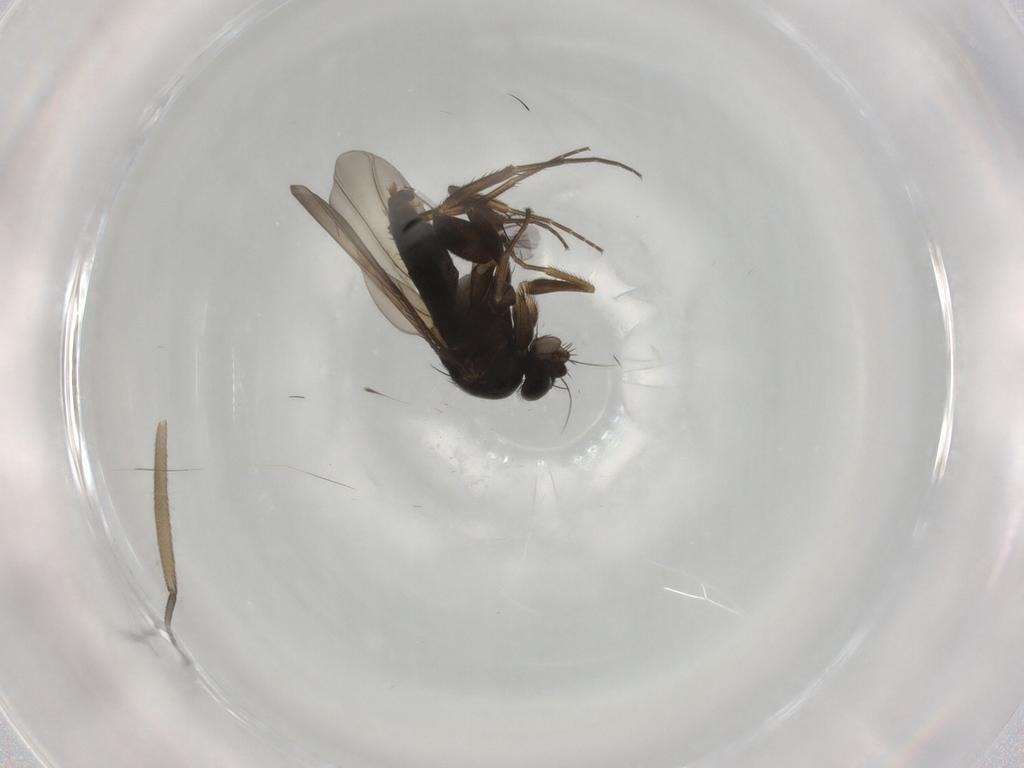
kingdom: Animalia
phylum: Arthropoda
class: Insecta
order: Diptera
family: Phoridae
